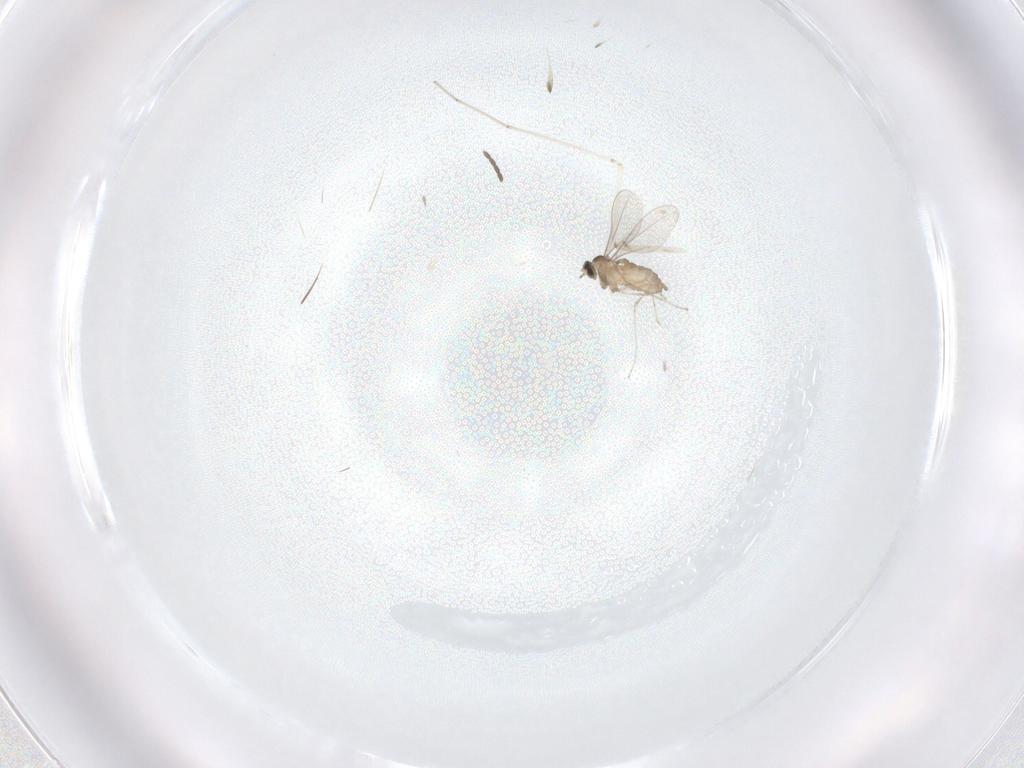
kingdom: Animalia
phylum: Arthropoda
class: Insecta
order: Diptera
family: Cecidomyiidae
